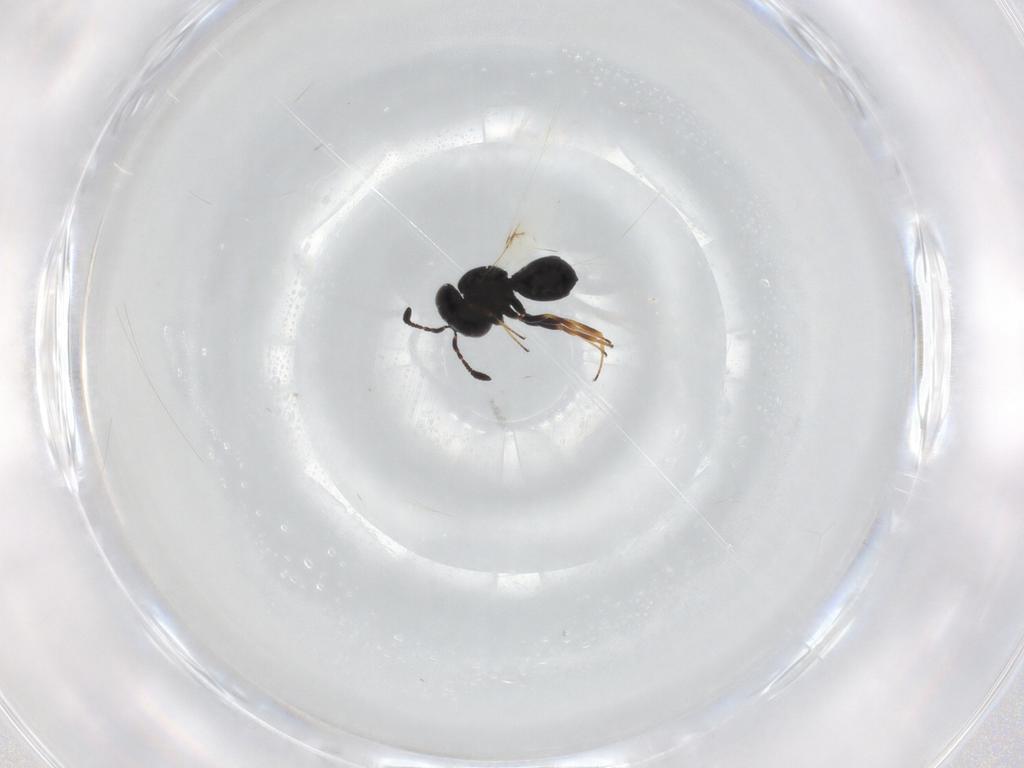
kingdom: Animalia
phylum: Arthropoda
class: Insecta
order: Hymenoptera
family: Scelionidae
